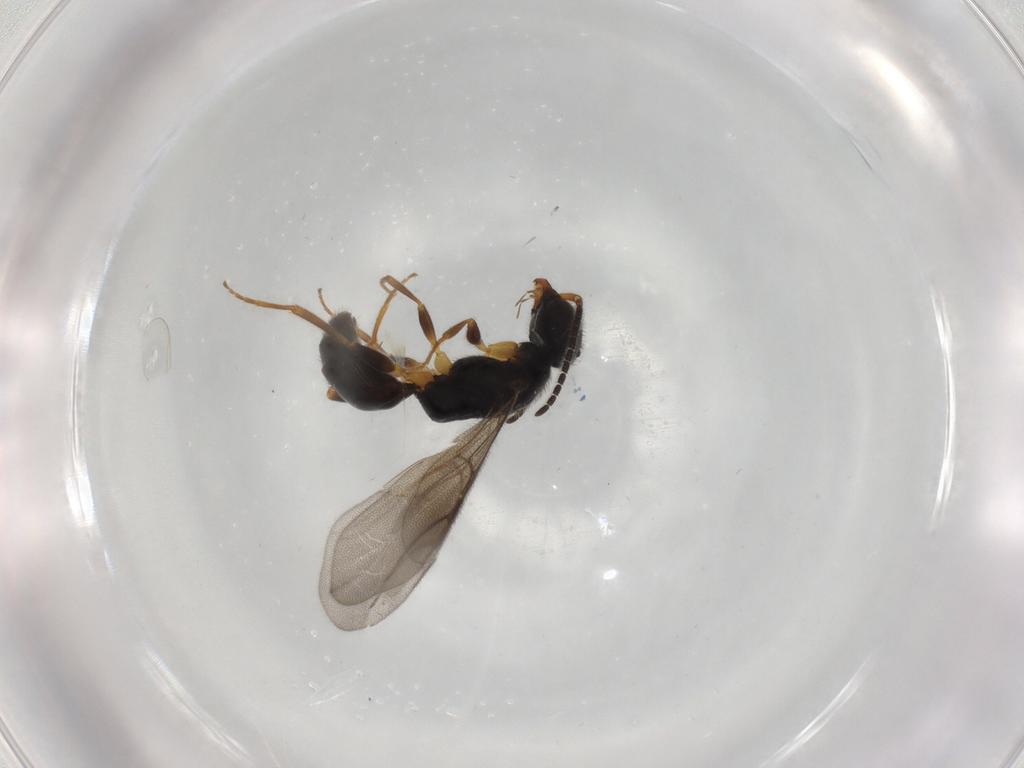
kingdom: Animalia
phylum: Arthropoda
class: Insecta
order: Hymenoptera
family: Bethylidae
